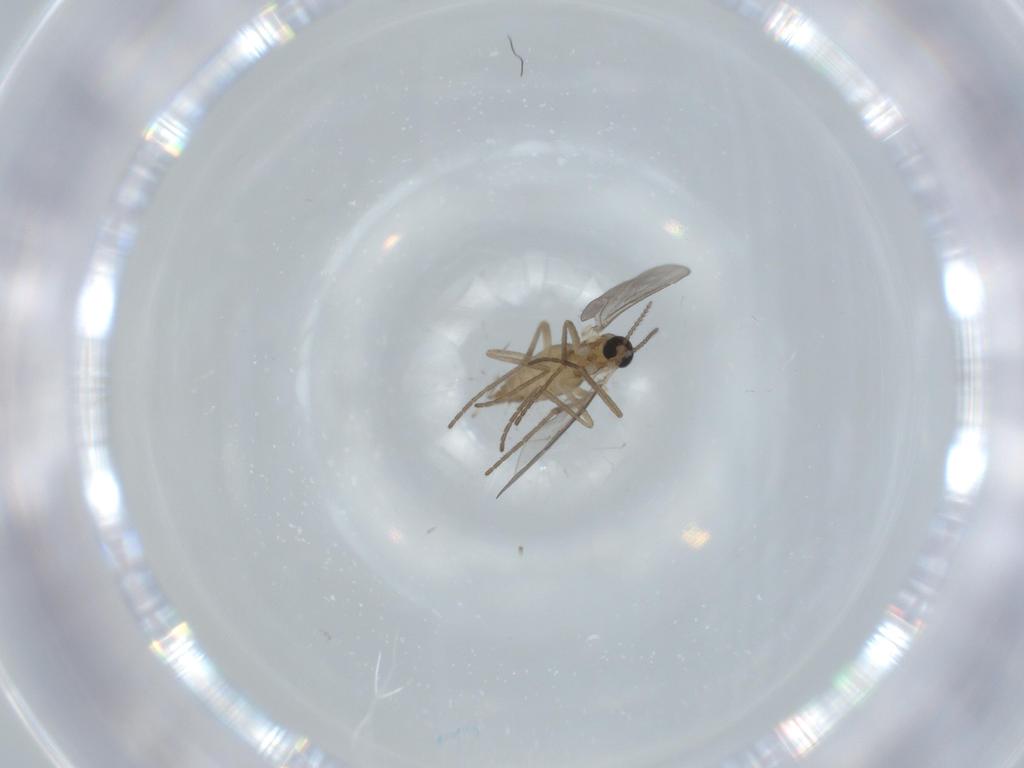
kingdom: Animalia
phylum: Arthropoda
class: Insecta
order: Diptera
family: Cecidomyiidae
